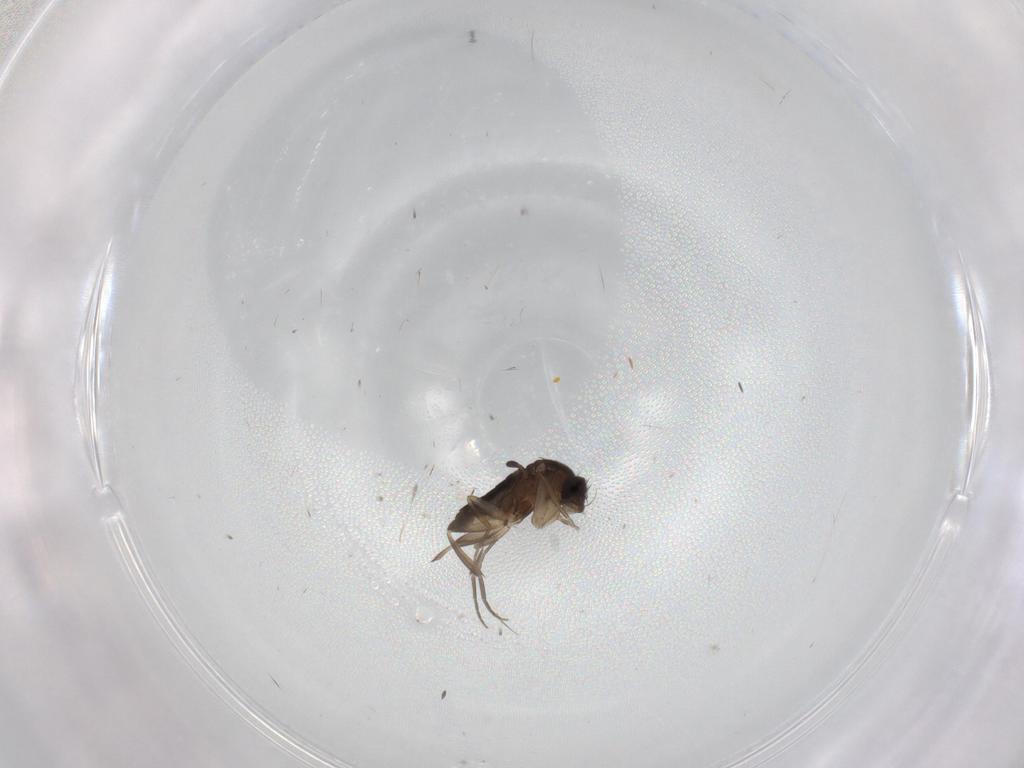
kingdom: Animalia
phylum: Arthropoda
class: Insecta
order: Diptera
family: Phoridae
